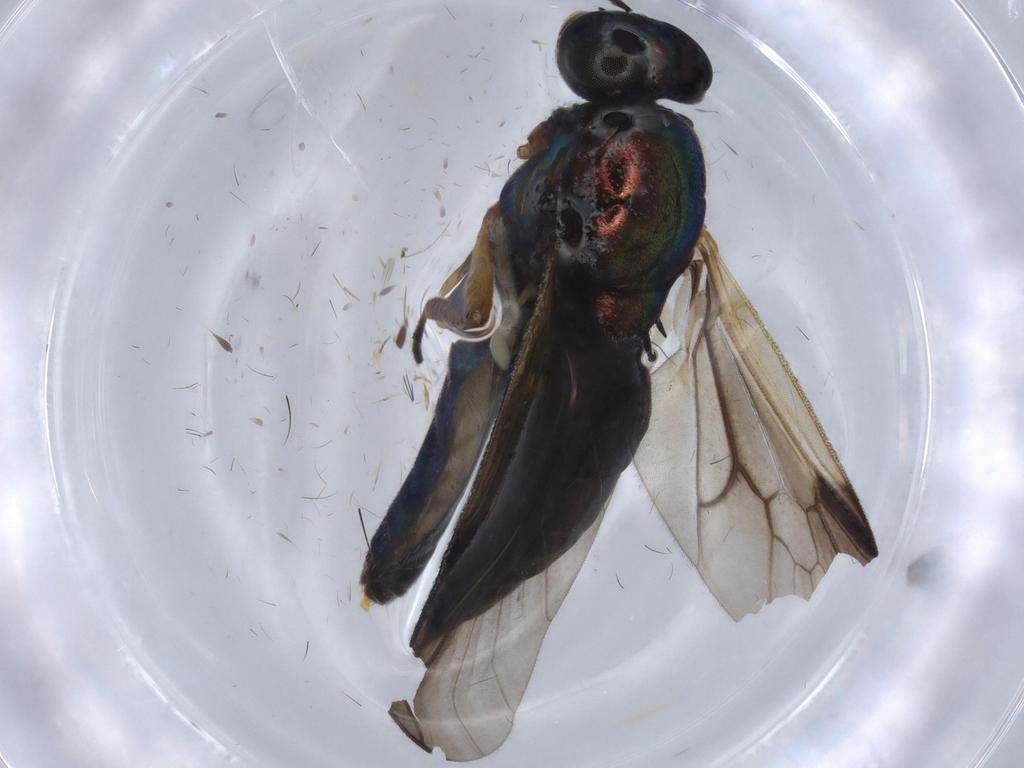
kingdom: Animalia
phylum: Arthropoda
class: Insecta
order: Diptera
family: Stratiomyidae
